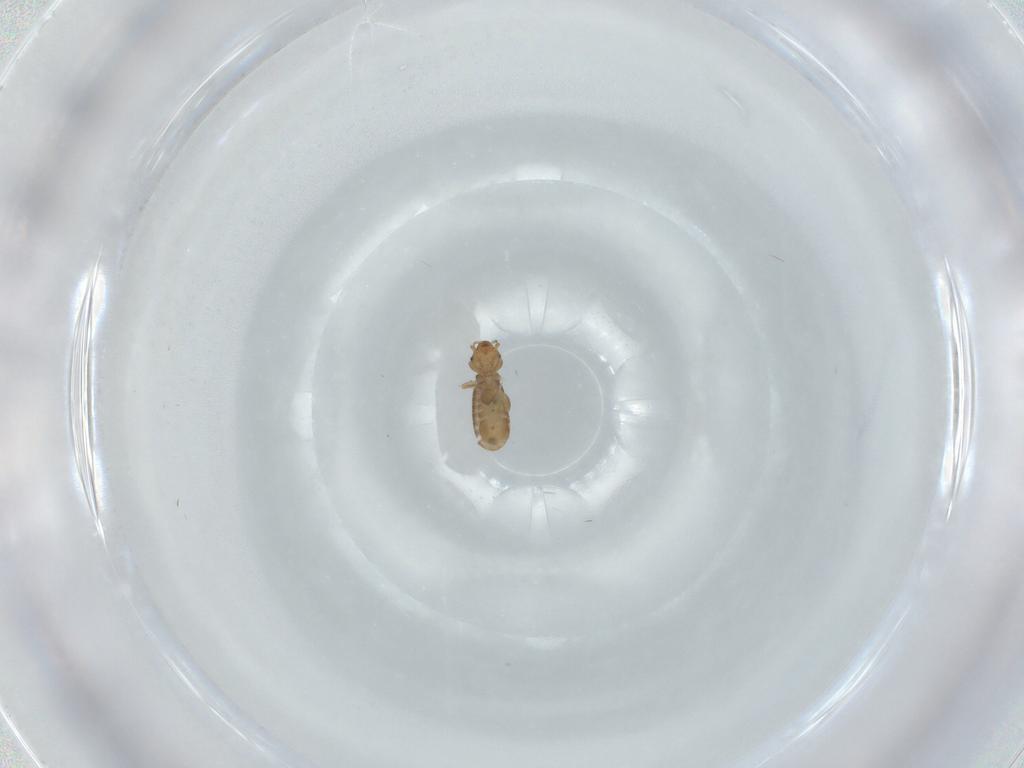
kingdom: Animalia
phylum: Arthropoda
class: Insecta
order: Psocodea
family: Liposcelididae
